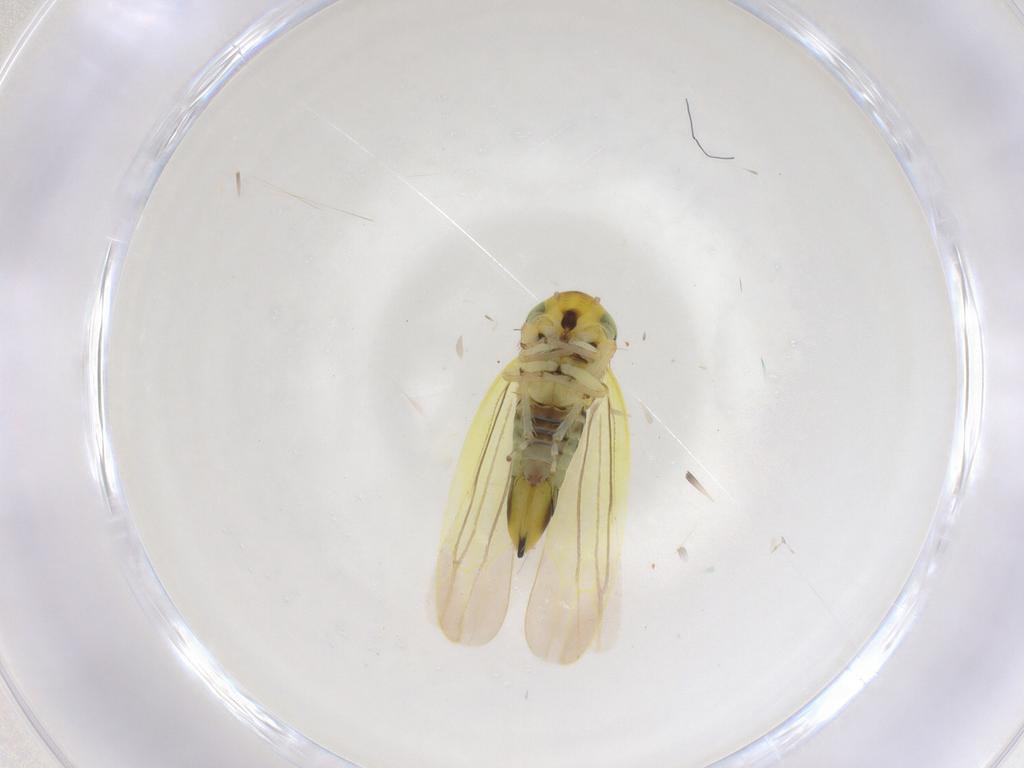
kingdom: Animalia
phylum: Arthropoda
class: Insecta
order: Hemiptera
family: Cicadellidae
